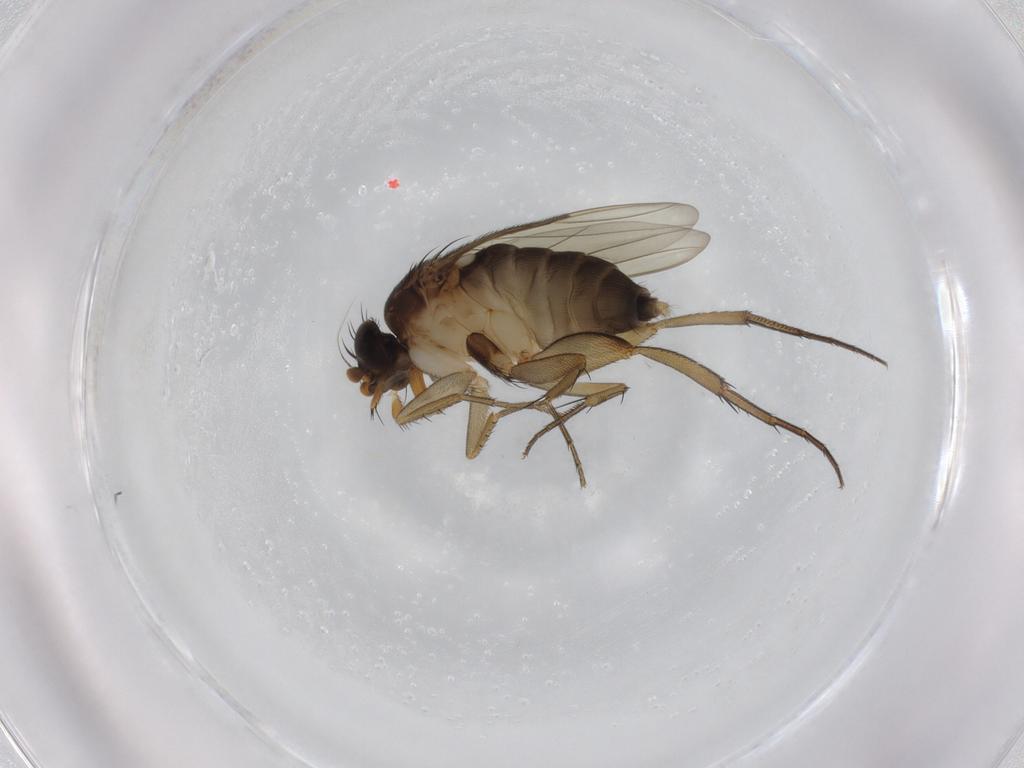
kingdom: Animalia
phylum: Arthropoda
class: Insecta
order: Diptera
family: Phoridae
